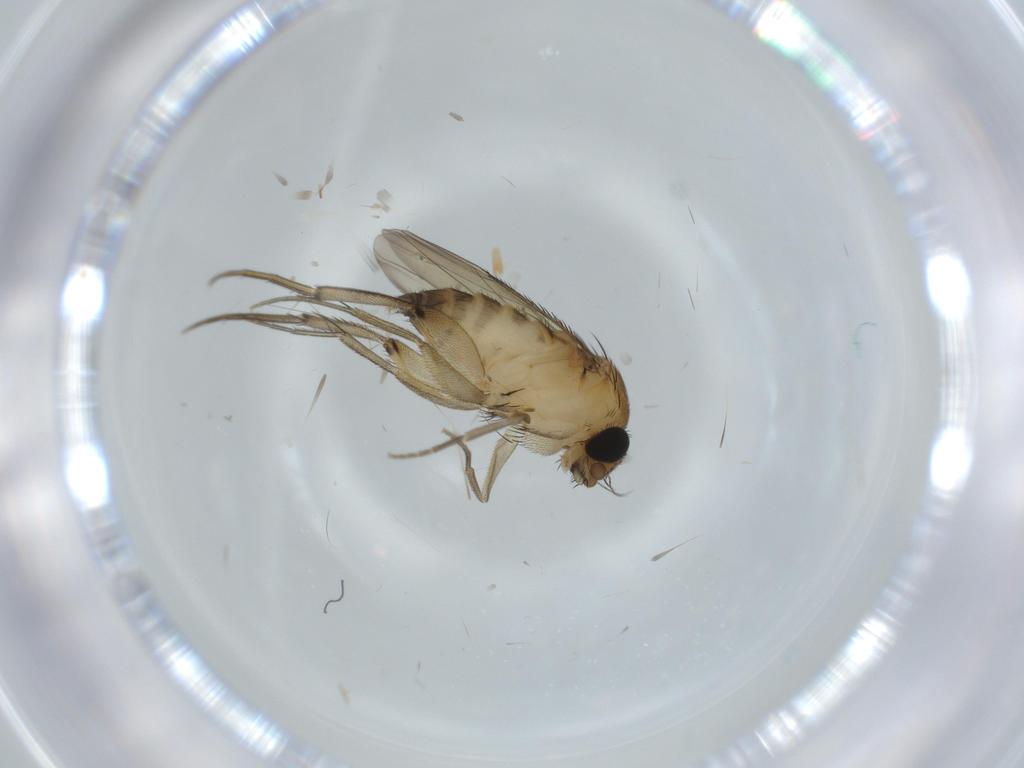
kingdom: Animalia
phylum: Arthropoda
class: Insecta
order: Diptera
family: Phoridae
